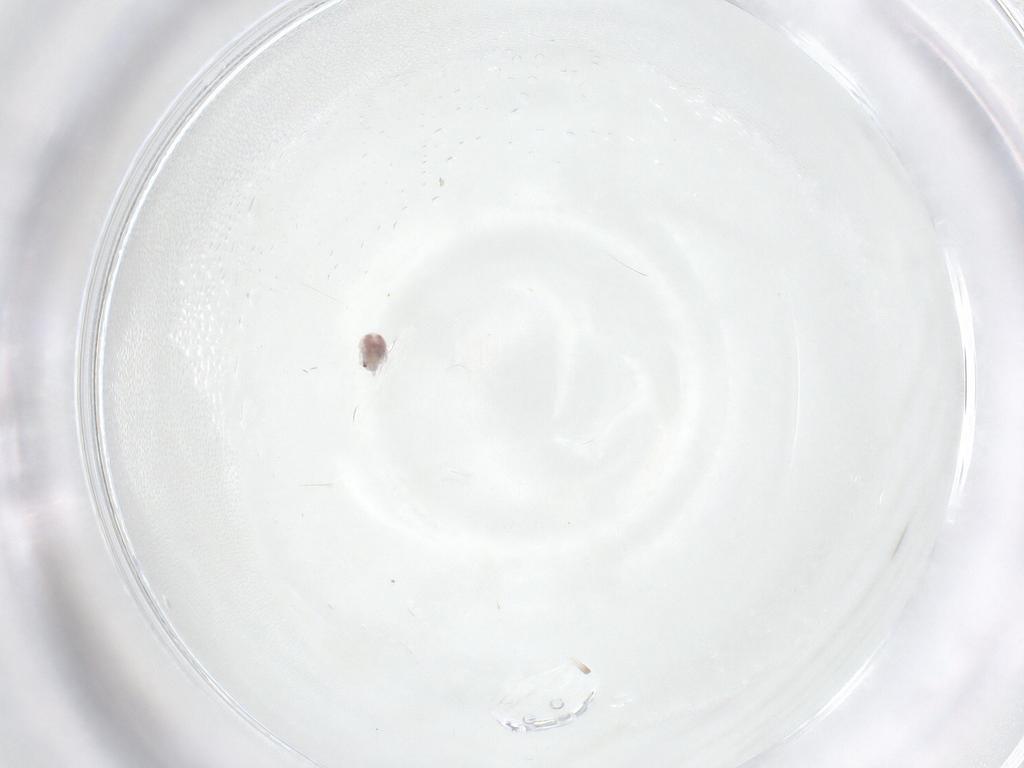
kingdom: Animalia
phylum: Arthropoda
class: Arachnida
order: Trombidiformes
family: Pionidae
